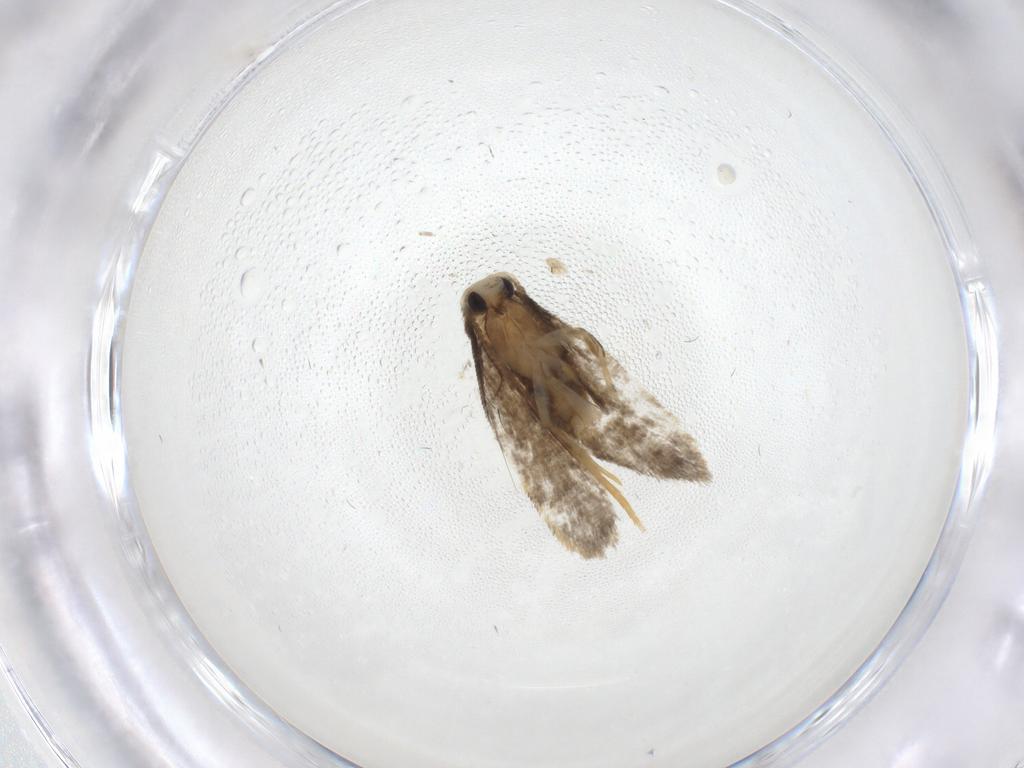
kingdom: Animalia
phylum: Arthropoda
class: Insecta
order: Lepidoptera
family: Psychidae
